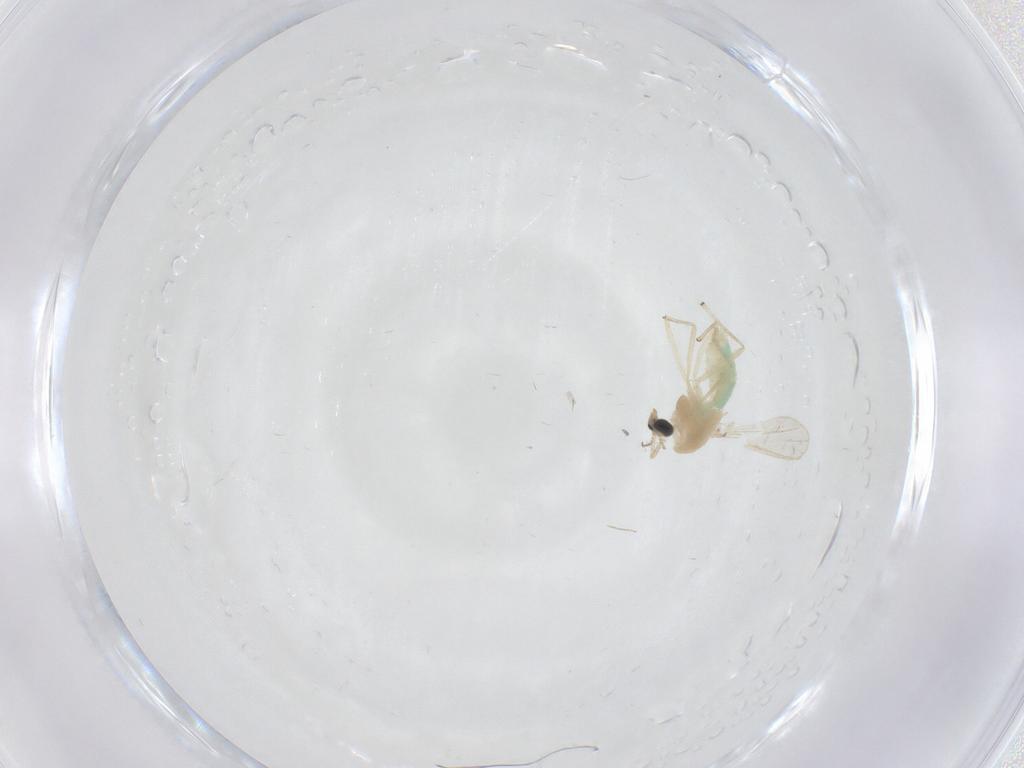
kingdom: Animalia
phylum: Arthropoda
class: Insecta
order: Diptera
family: Chironomidae
